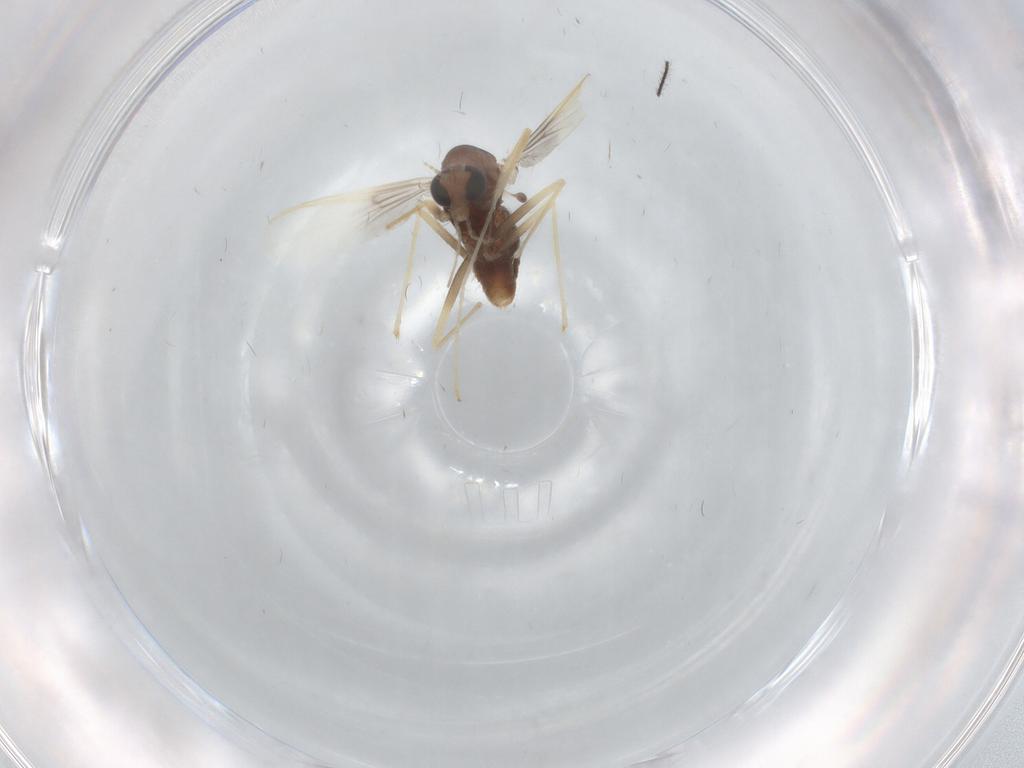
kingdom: Animalia
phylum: Arthropoda
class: Insecta
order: Diptera
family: Chironomidae
